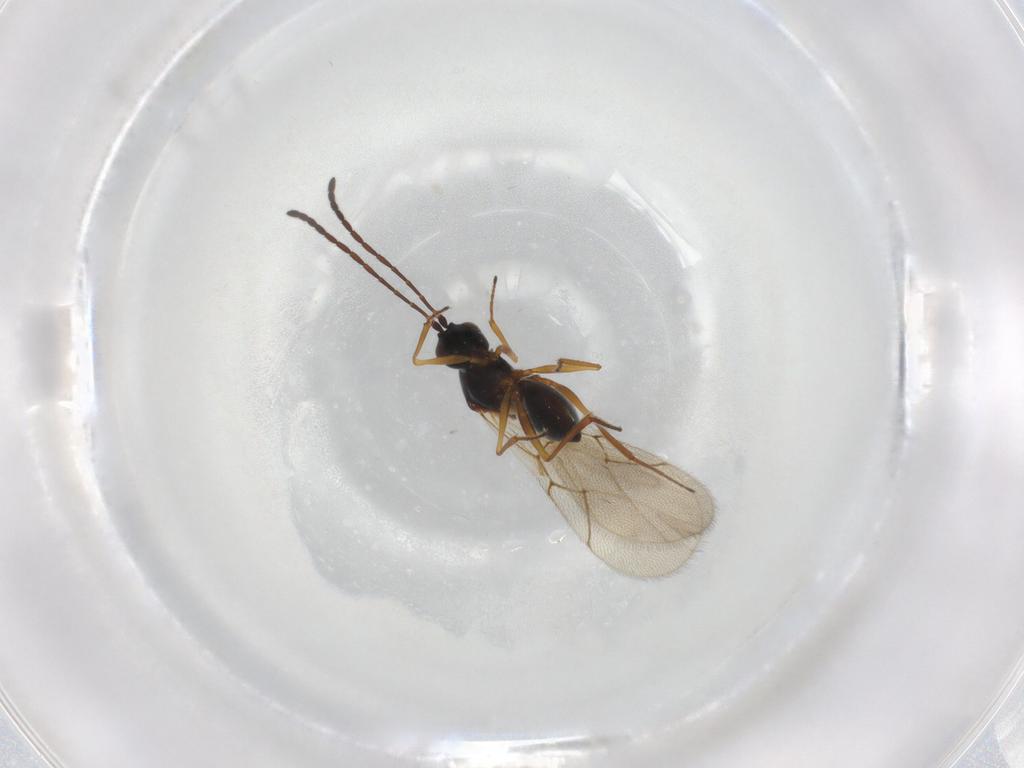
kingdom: Animalia
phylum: Arthropoda
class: Insecta
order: Hymenoptera
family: Figitidae
